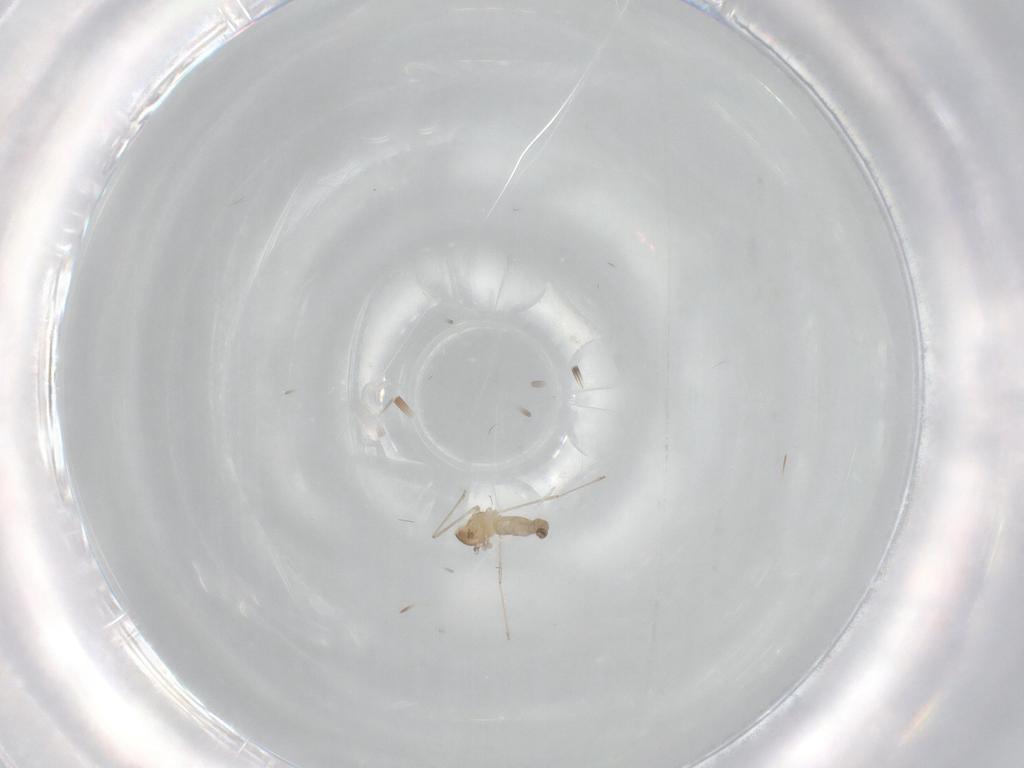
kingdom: Animalia
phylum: Arthropoda
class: Insecta
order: Diptera
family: Cecidomyiidae
